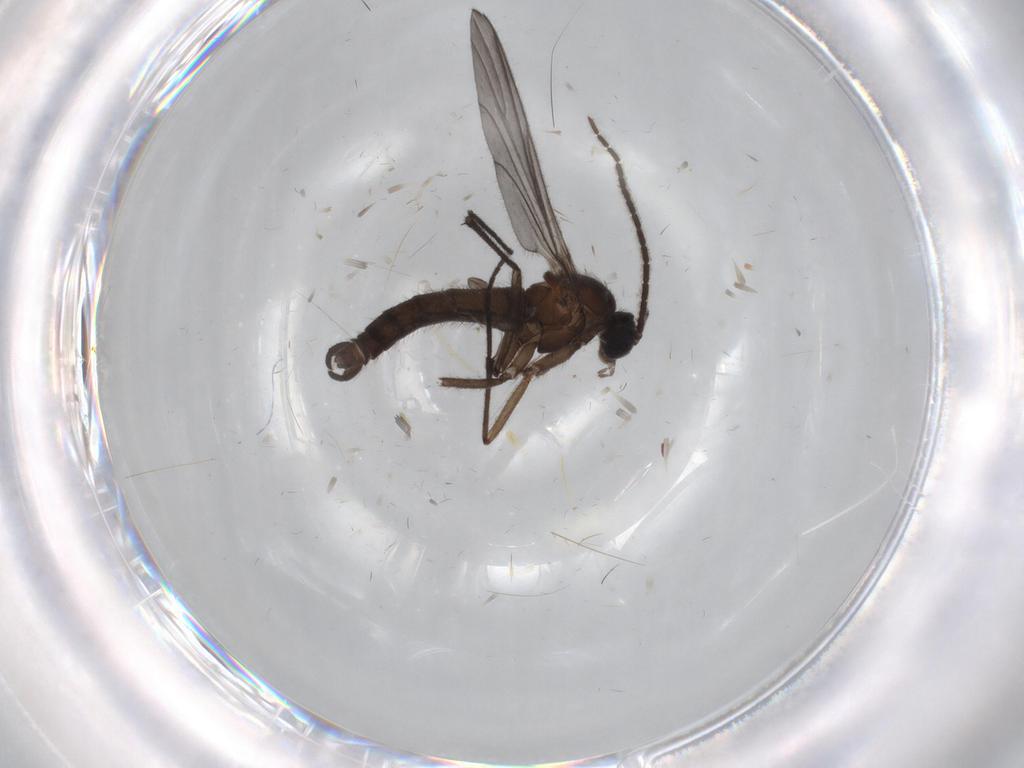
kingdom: Animalia
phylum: Arthropoda
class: Insecta
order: Diptera
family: Sciaridae
